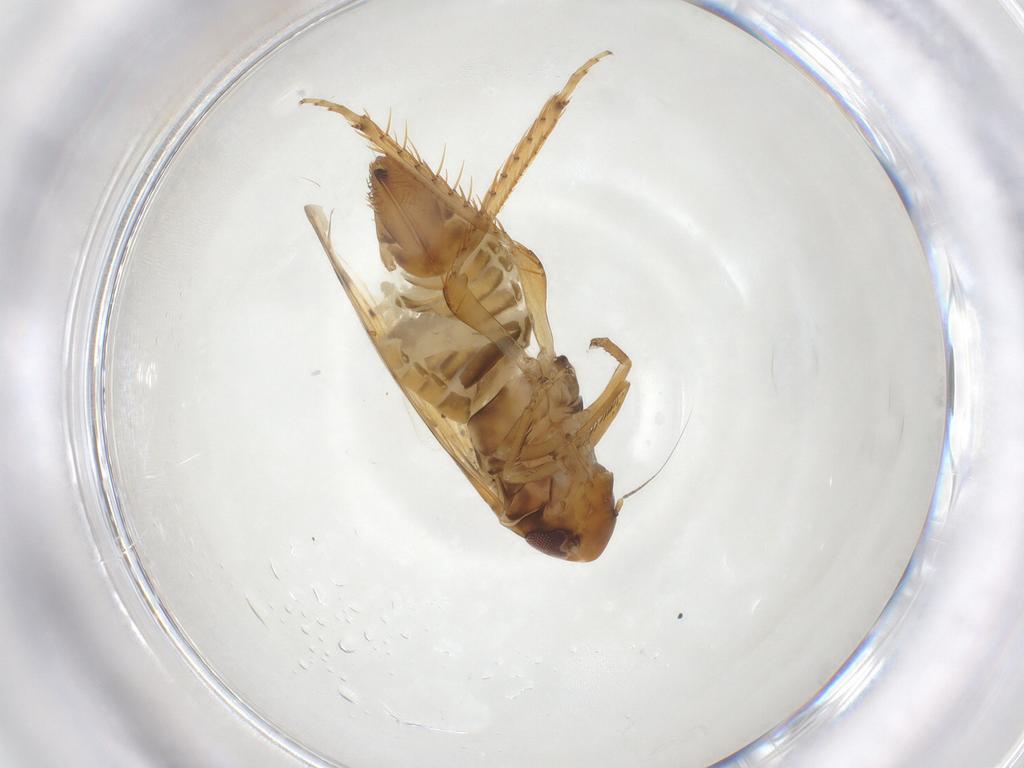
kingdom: Animalia
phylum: Arthropoda
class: Insecta
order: Hemiptera
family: Cicadellidae
